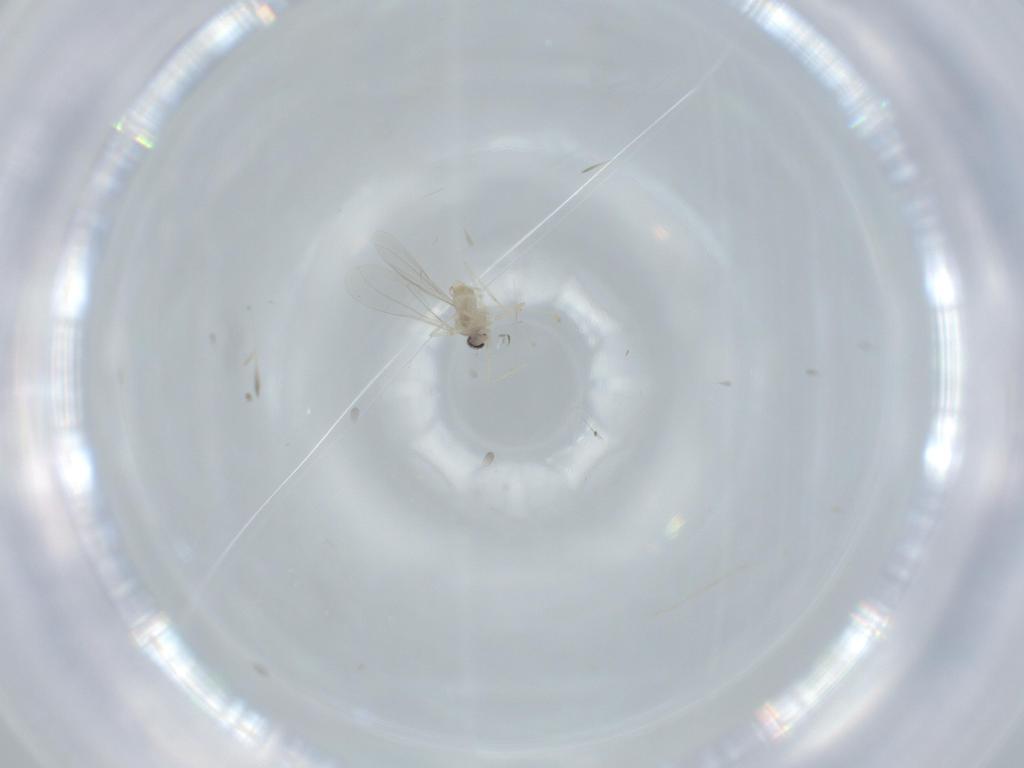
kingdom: Animalia
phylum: Arthropoda
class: Insecta
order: Diptera
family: Cecidomyiidae
